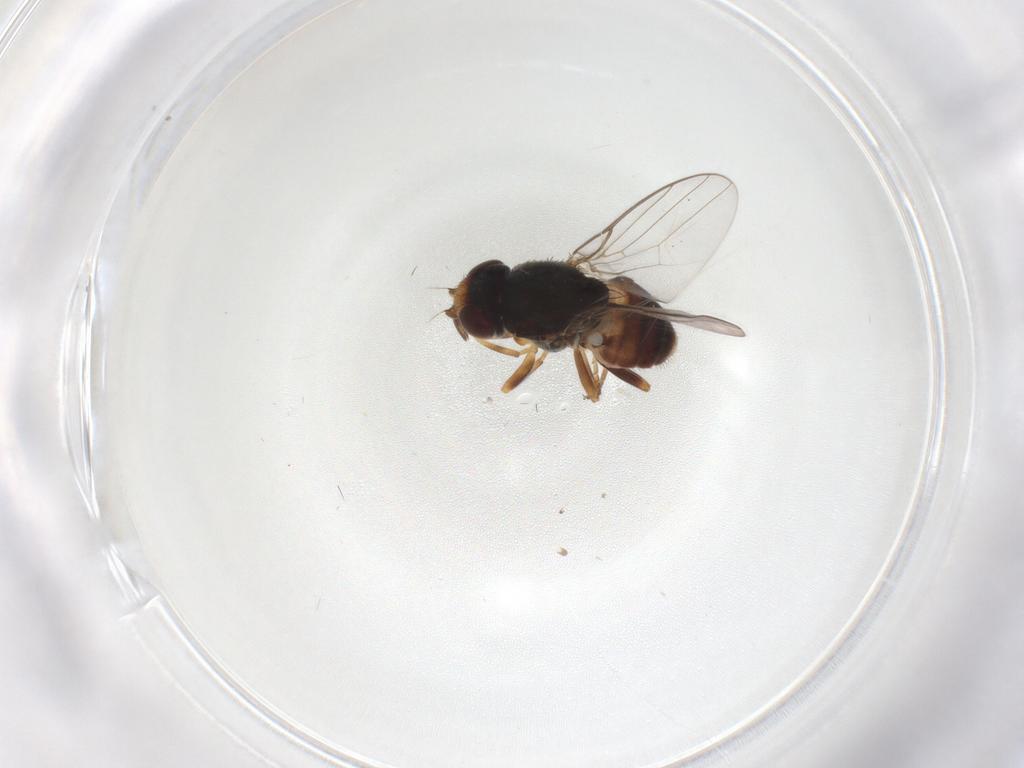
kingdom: Animalia
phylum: Arthropoda
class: Insecta
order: Diptera
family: Chloropidae
